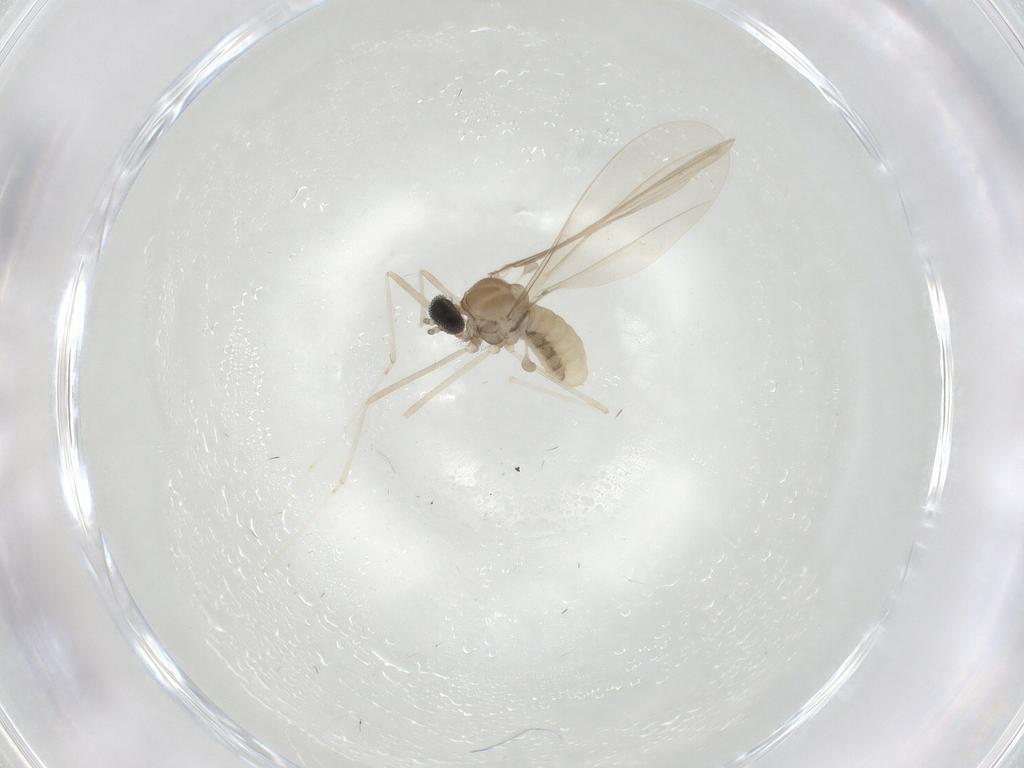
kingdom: Animalia
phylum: Arthropoda
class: Insecta
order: Diptera
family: Cecidomyiidae
